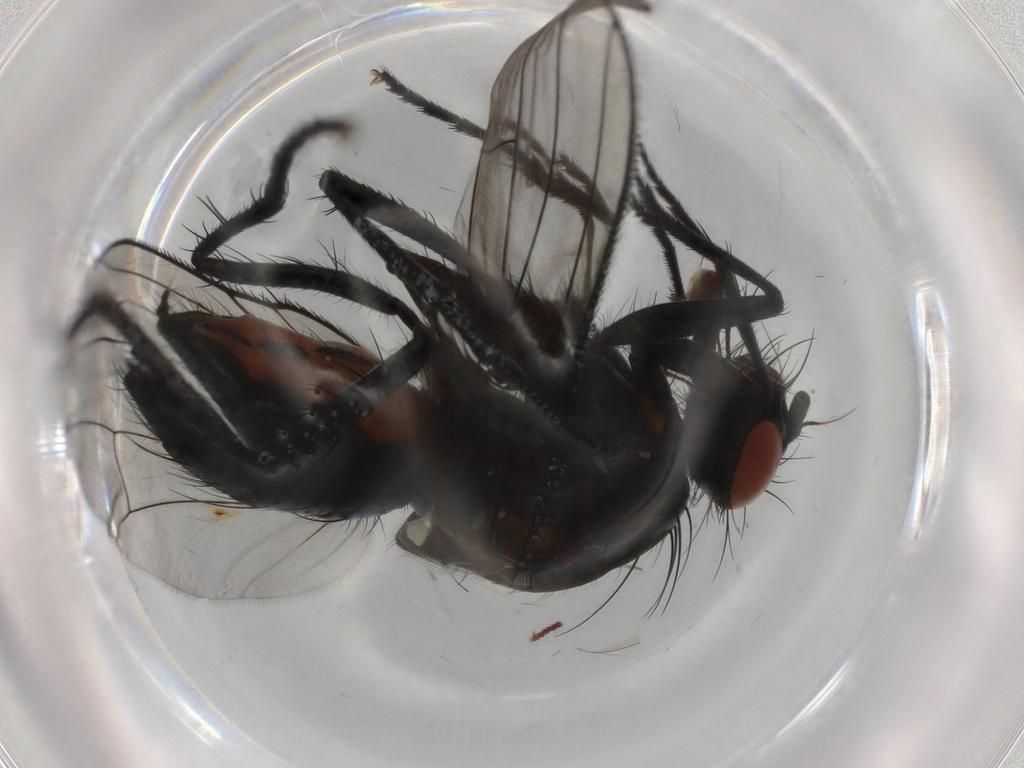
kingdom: Animalia
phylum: Arthropoda
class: Insecta
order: Diptera
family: Anthomyiidae
